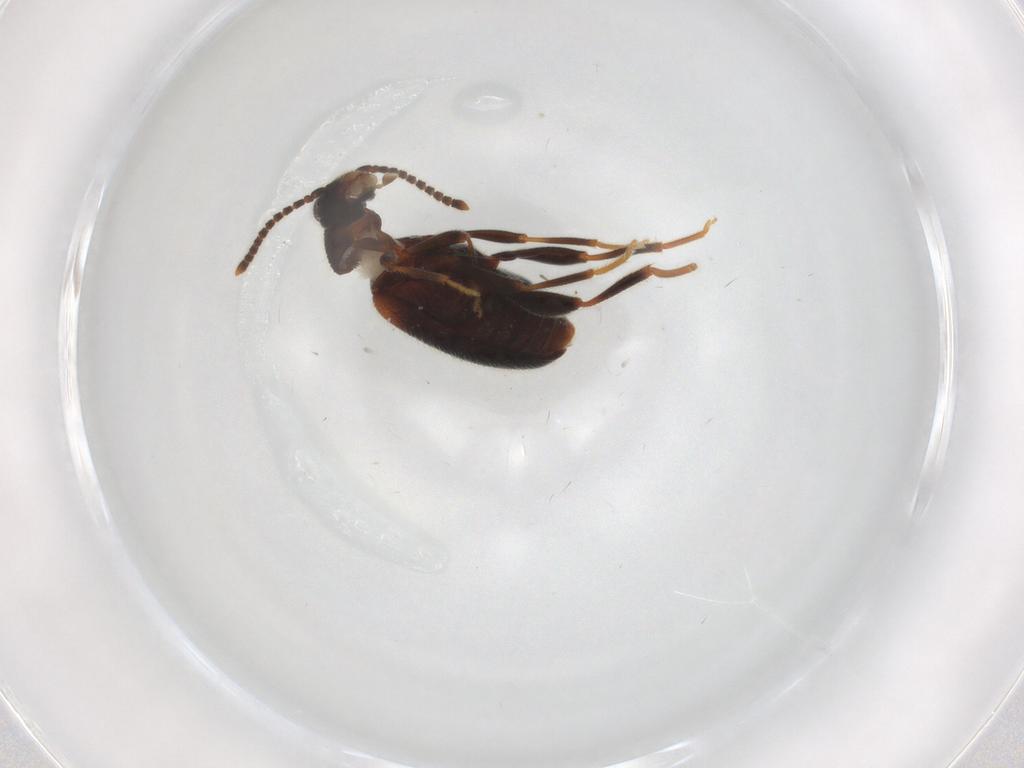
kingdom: Animalia
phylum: Arthropoda
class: Insecta
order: Coleoptera
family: Aderidae
